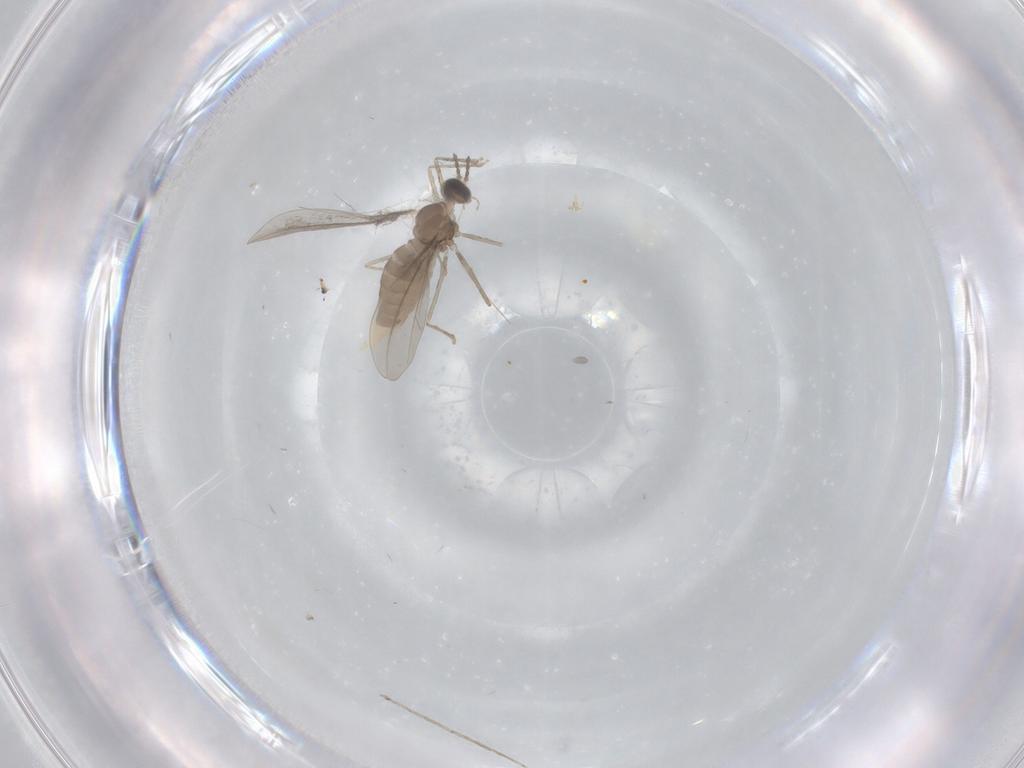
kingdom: Animalia
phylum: Arthropoda
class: Insecta
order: Diptera
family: Cecidomyiidae
